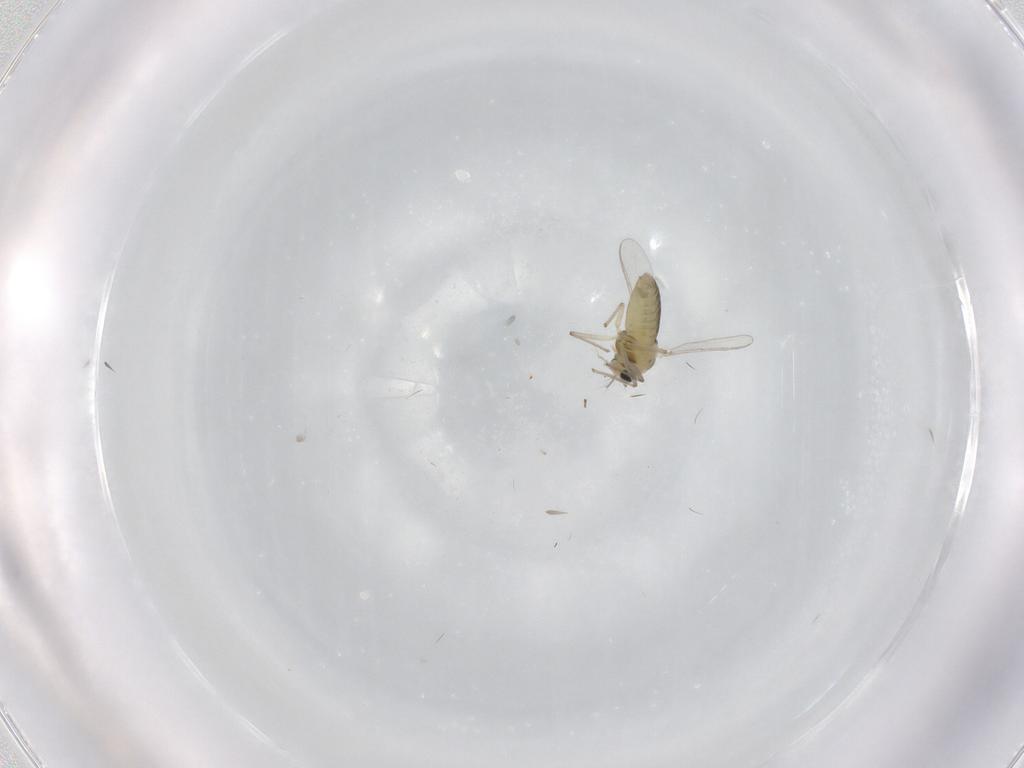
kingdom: Animalia
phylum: Arthropoda
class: Insecta
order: Diptera
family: Chironomidae
